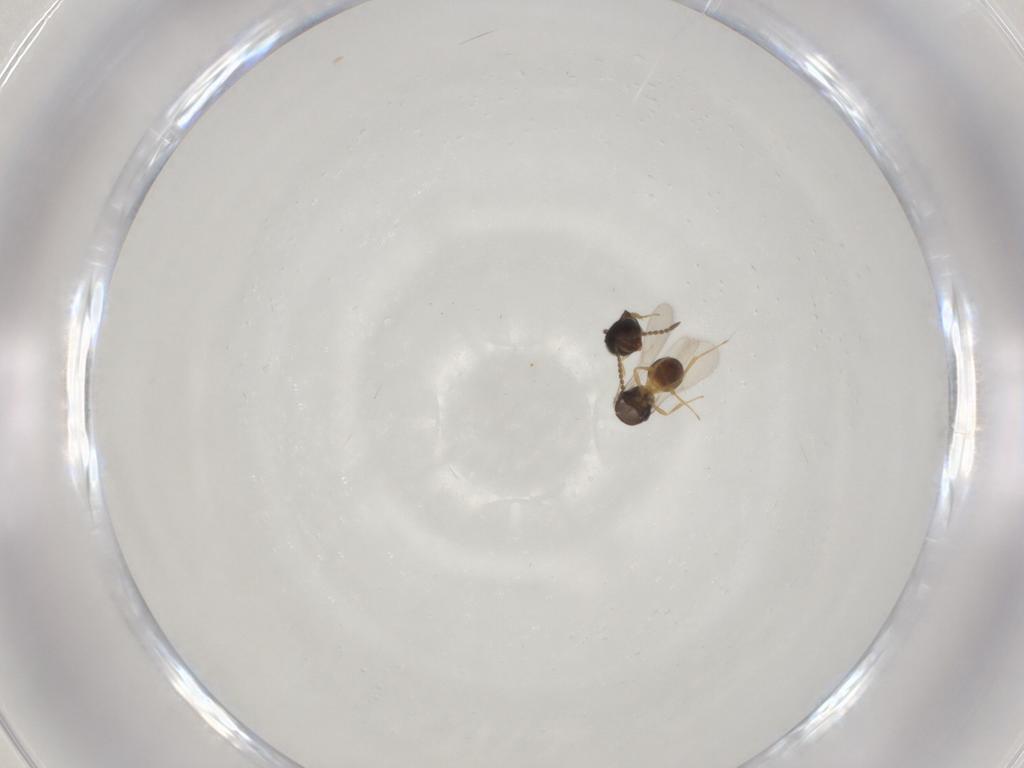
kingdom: Animalia
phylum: Arthropoda
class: Insecta
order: Hymenoptera
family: Scelionidae
